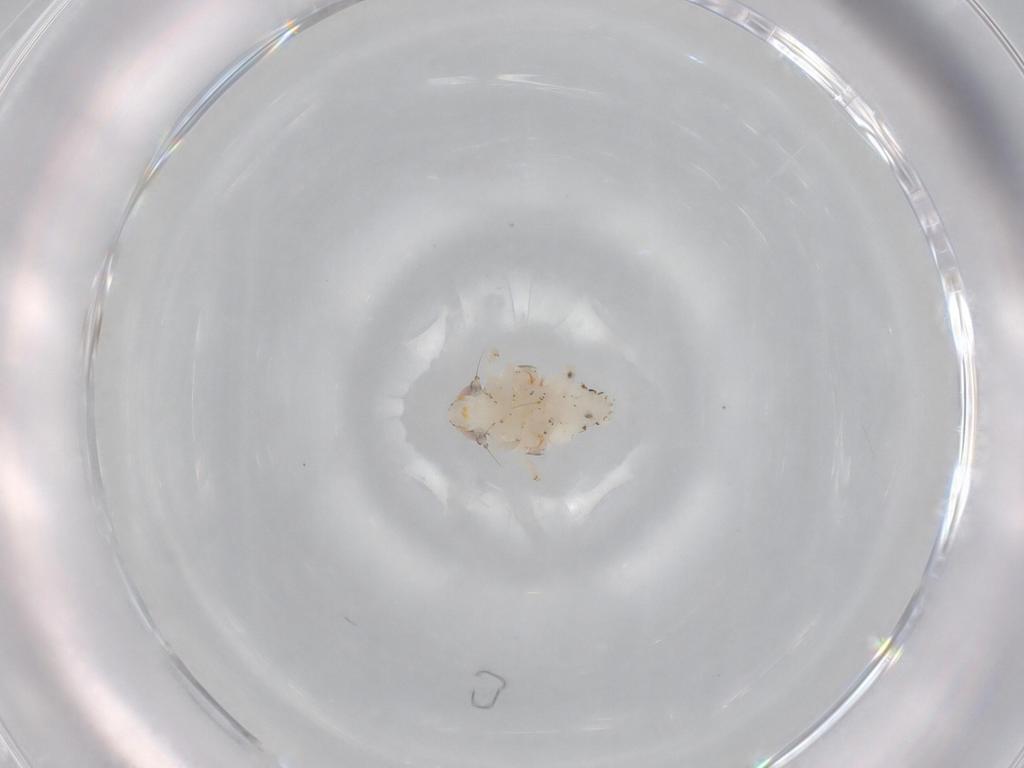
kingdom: Animalia
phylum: Arthropoda
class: Insecta
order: Hemiptera
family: Nogodinidae
